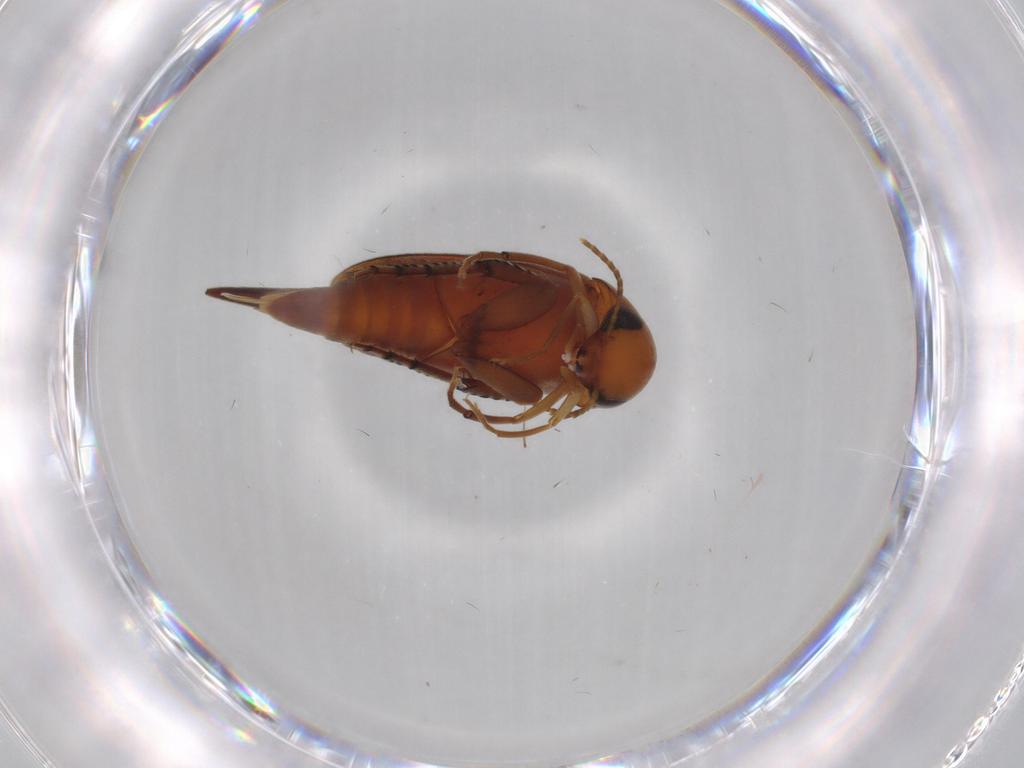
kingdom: Animalia
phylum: Arthropoda
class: Insecta
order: Coleoptera
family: Mordellidae
